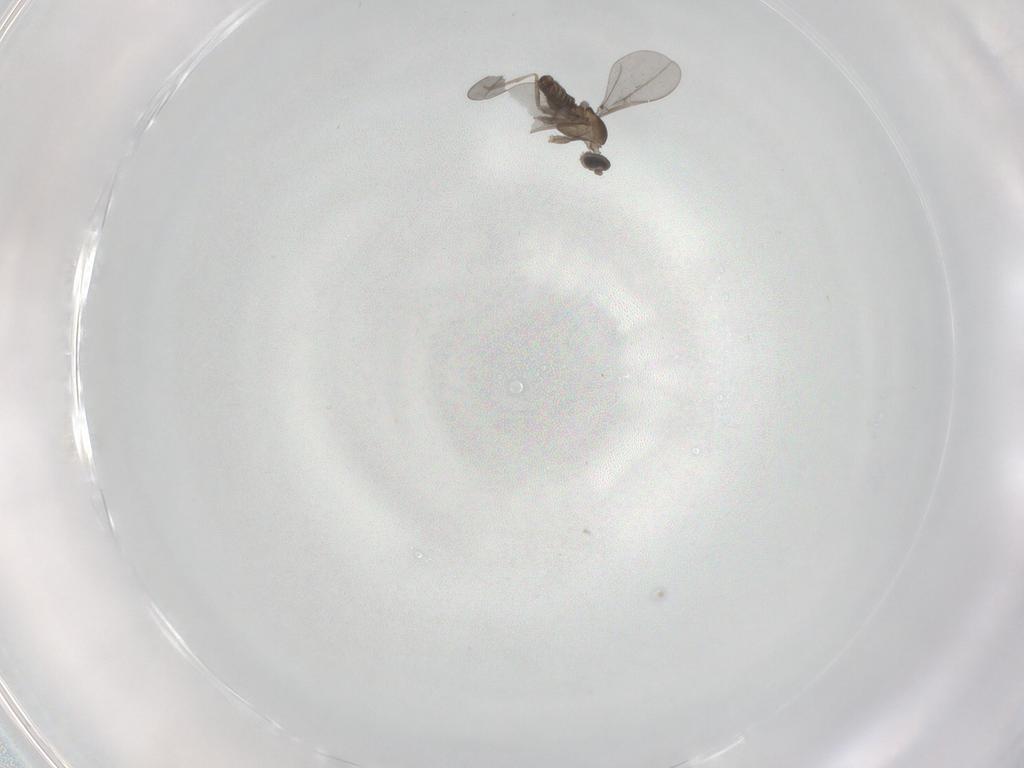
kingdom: Animalia
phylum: Arthropoda
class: Insecta
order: Diptera
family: Cecidomyiidae
